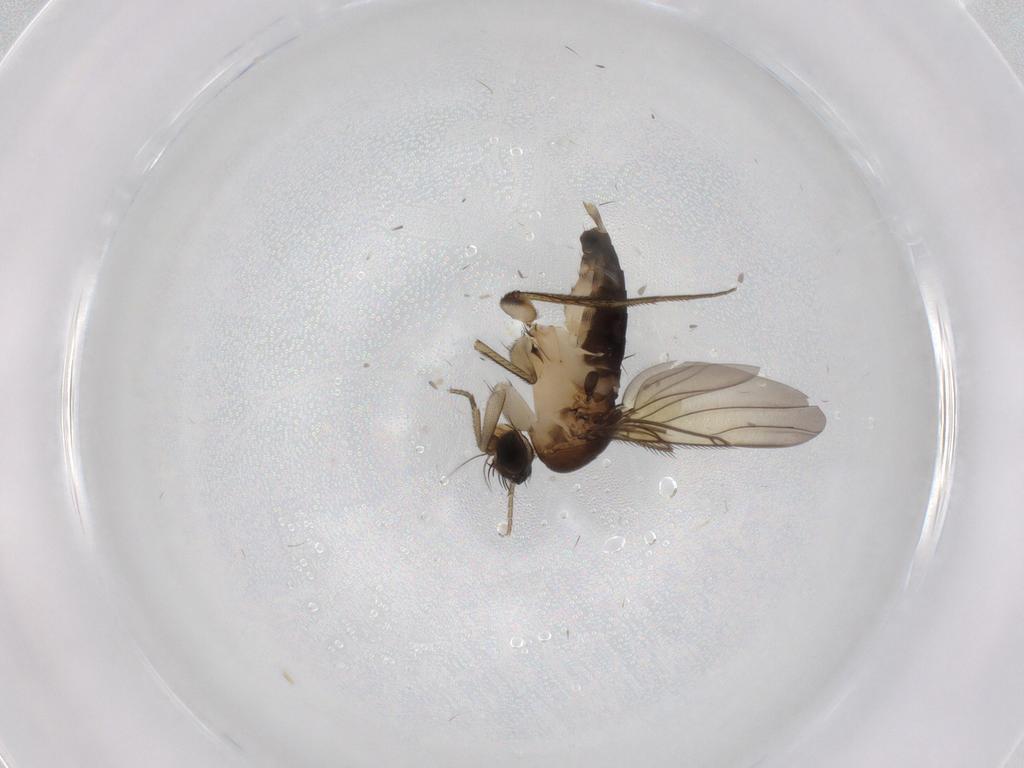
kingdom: Animalia
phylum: Arthropoda
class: Insecta
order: Diptera
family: Phoridae
